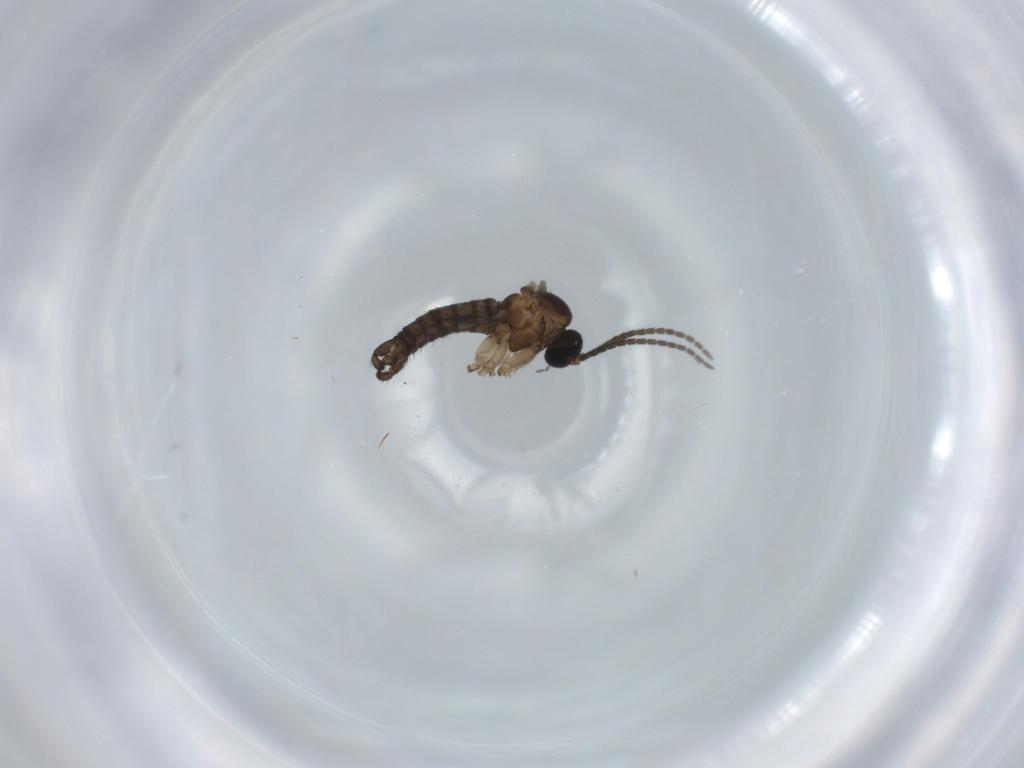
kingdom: Animalia
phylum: Arthropoda
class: Insecta
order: Diptera
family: Sciaridae
